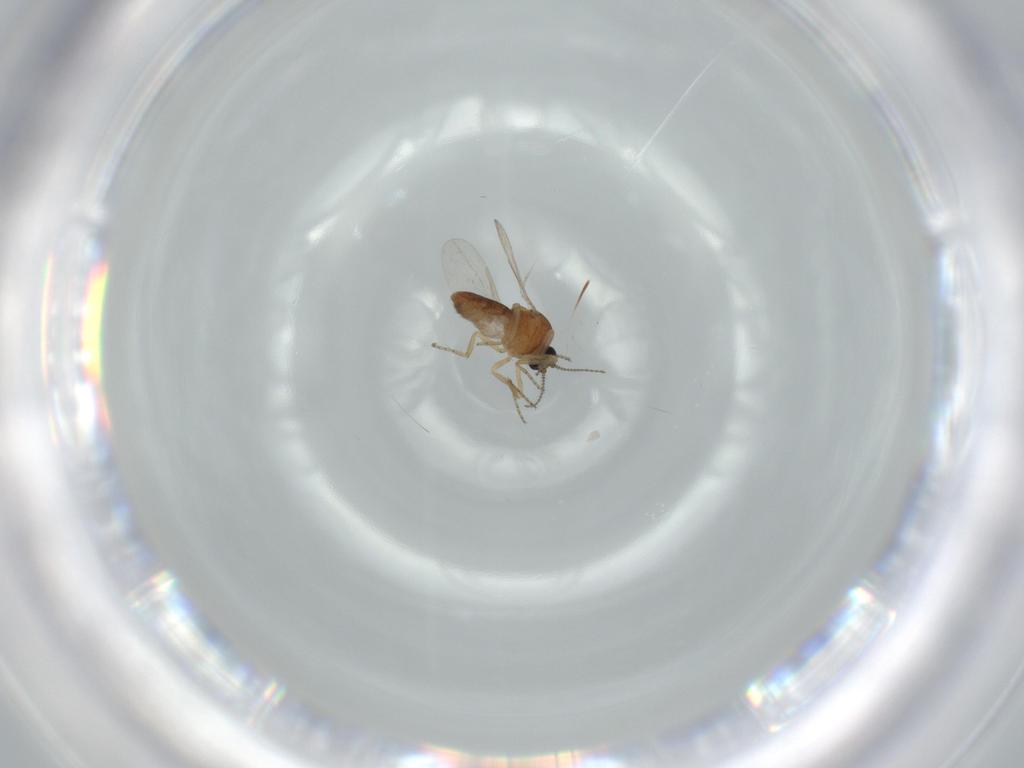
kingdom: Animalia
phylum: Arthropoda
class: Insecta
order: Diptera
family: Ceratopogonidae
